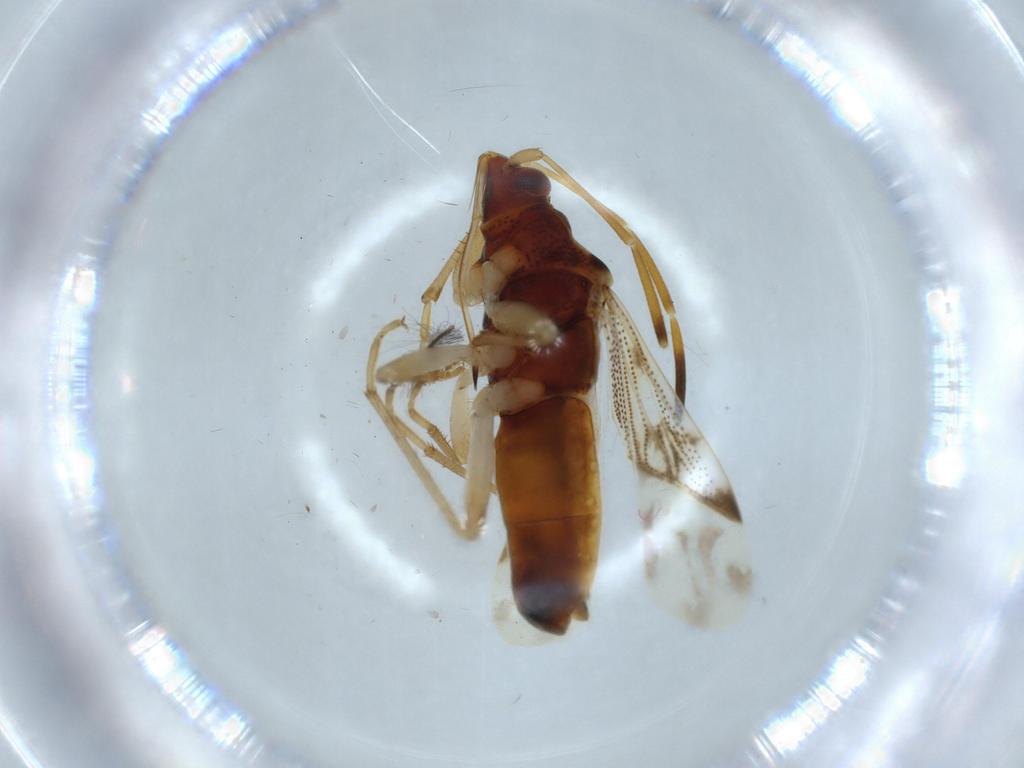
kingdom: Animalia
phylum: Arthropoda
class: Insecta
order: Hemiptera
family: Rhyparochromidae
